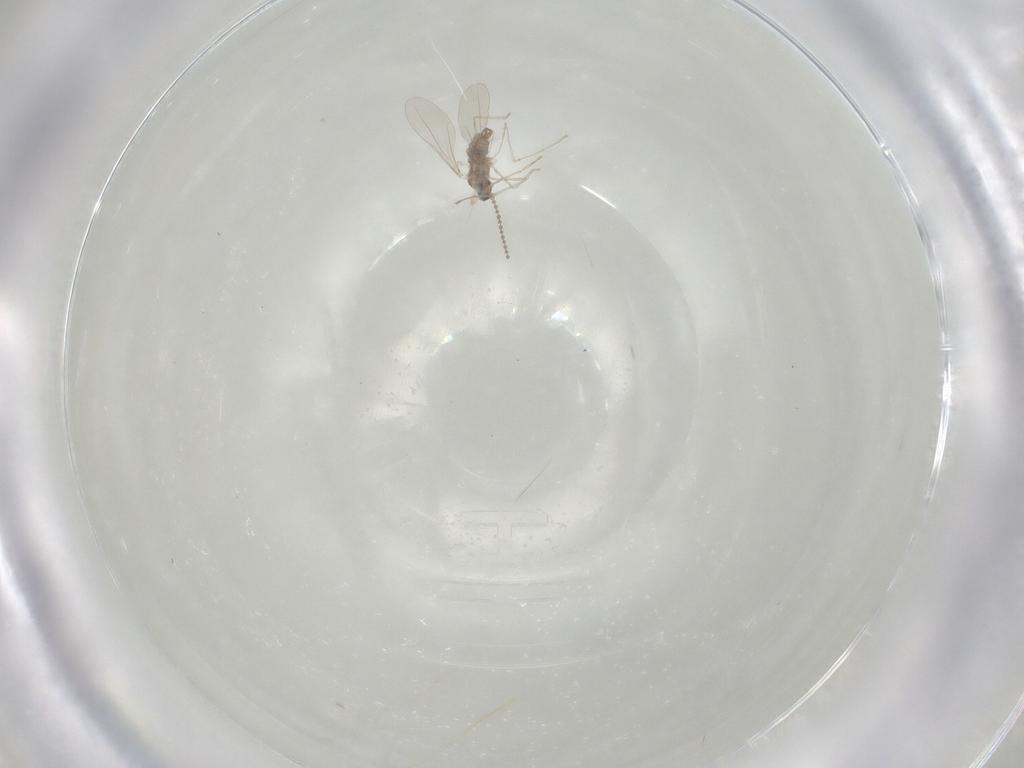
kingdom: Animalia
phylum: Arthropoda
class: Insecta
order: Diptera
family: Cecidomyiidae
